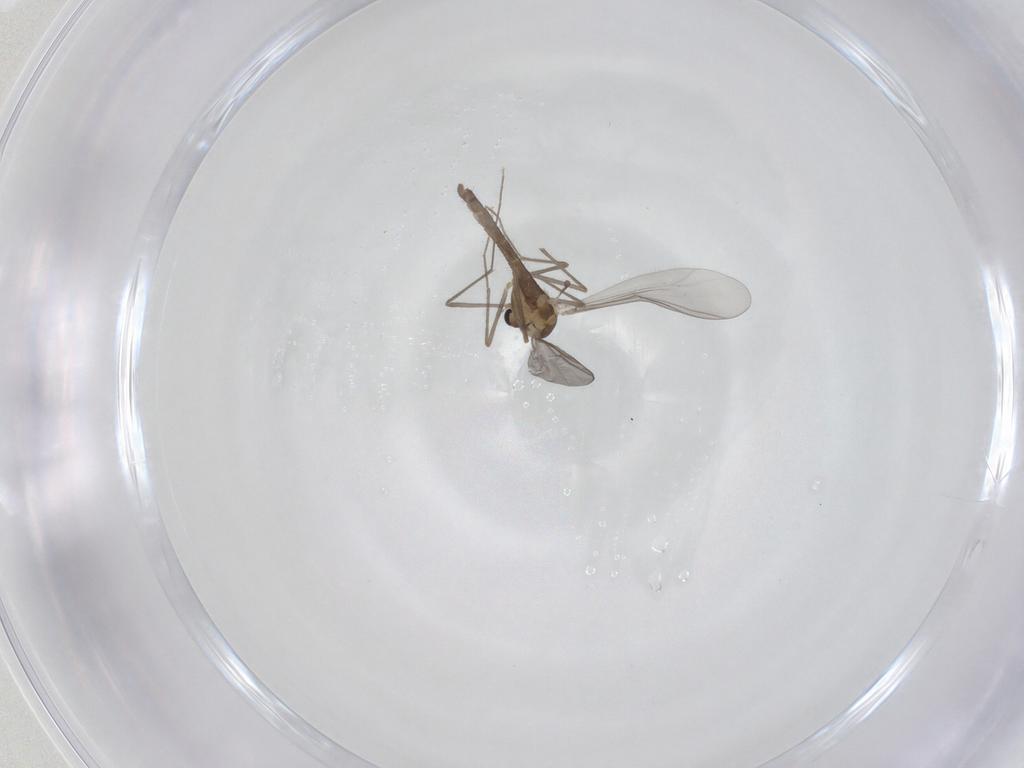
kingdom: Animalia
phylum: Arthropoda
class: Insecta
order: Diptera
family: Chironomidae
